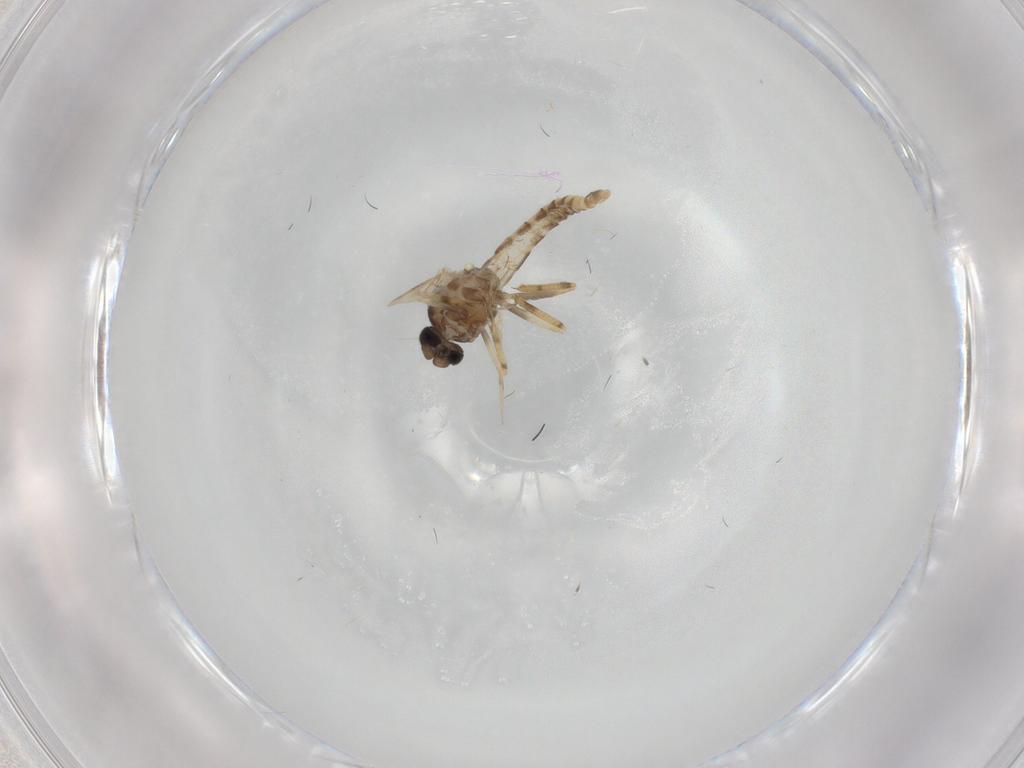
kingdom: Animalia
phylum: Arthropoda
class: Insecta
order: Diptera
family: Ceratopogonidae
